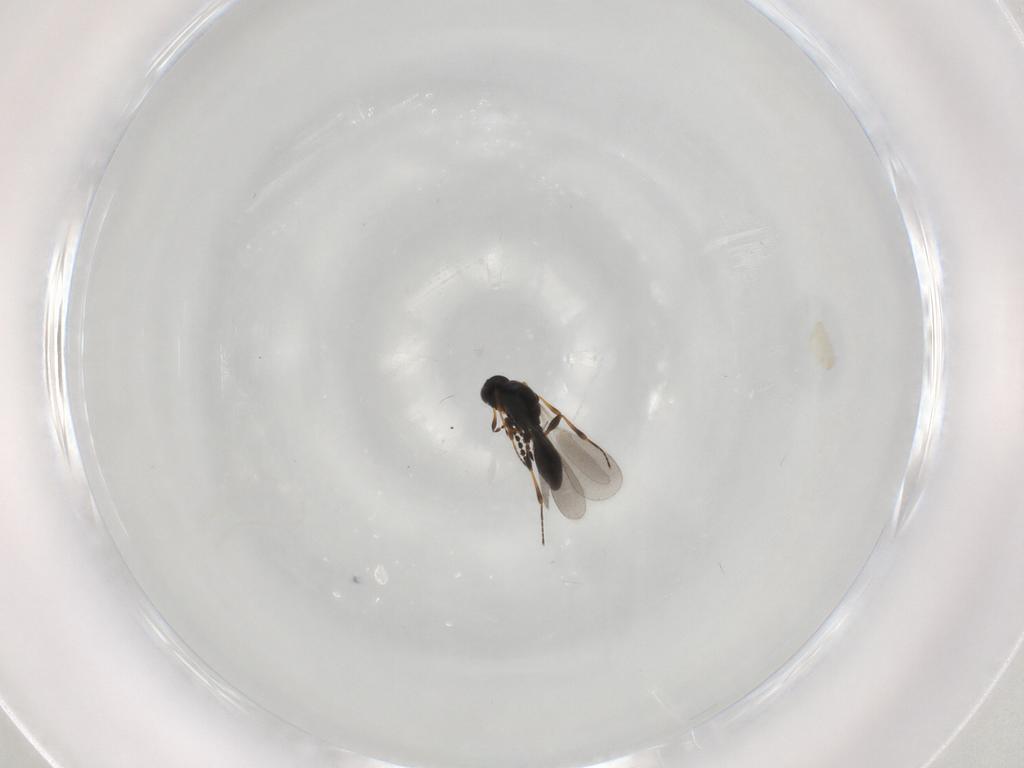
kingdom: Animalia
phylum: Arthropoda
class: Insecta
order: Hymenoptera
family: Platygastridae
